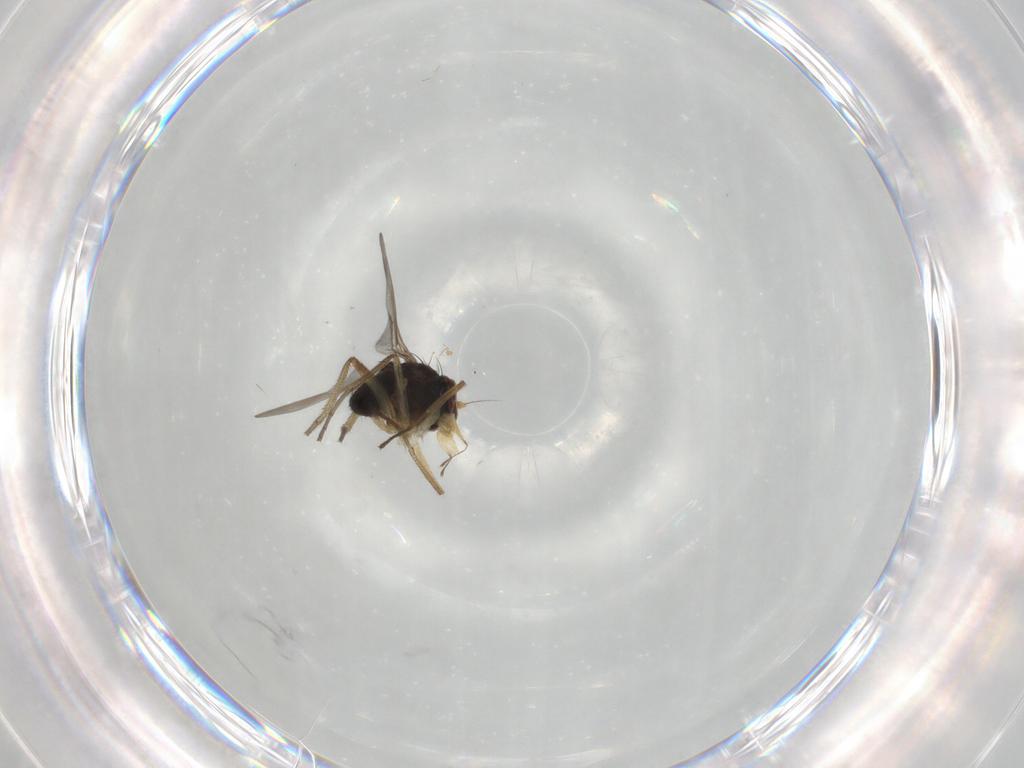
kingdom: Animalia
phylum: Arthropoda
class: Insecta
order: Diptera
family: Dolichopodidae
